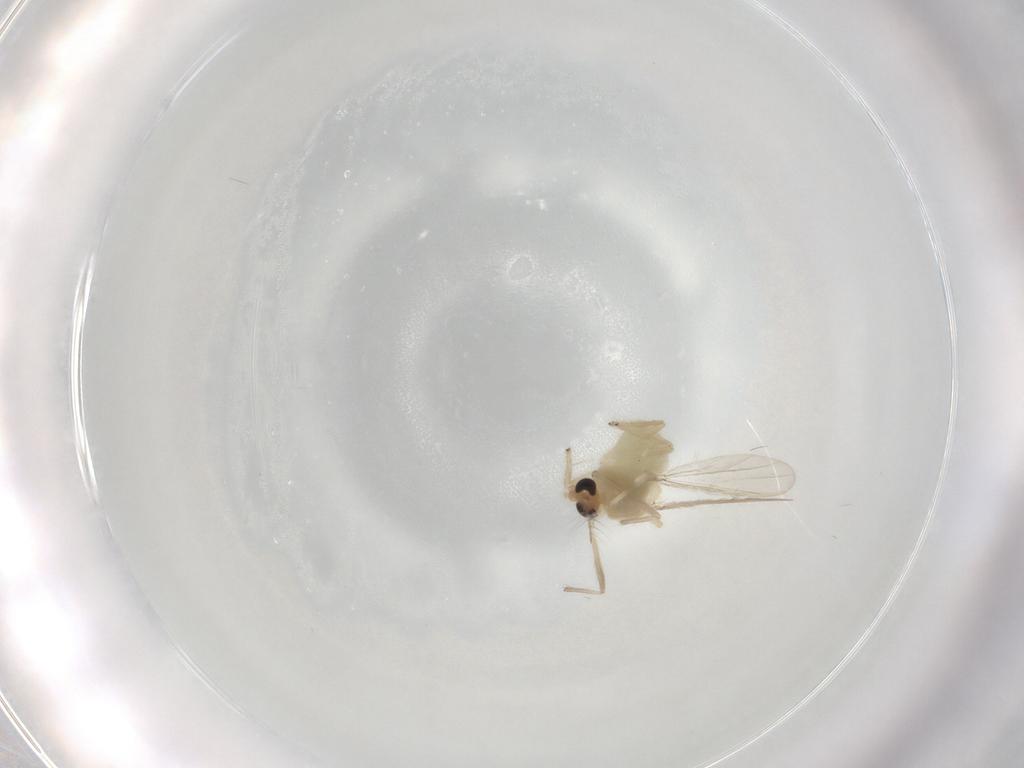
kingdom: Animalia
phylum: Arthropoda
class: Insecta
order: Diptera
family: Chironomidae
